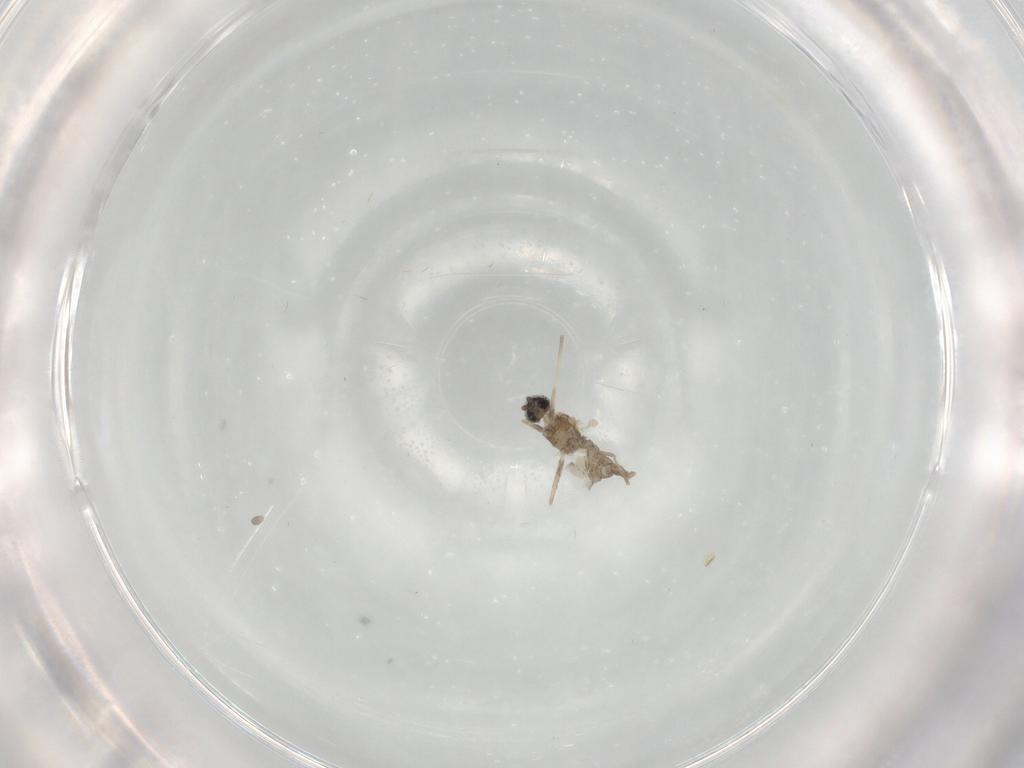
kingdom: Animalia
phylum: Arthropoda
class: Insecta
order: Diptera
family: Cecidomyiidae
